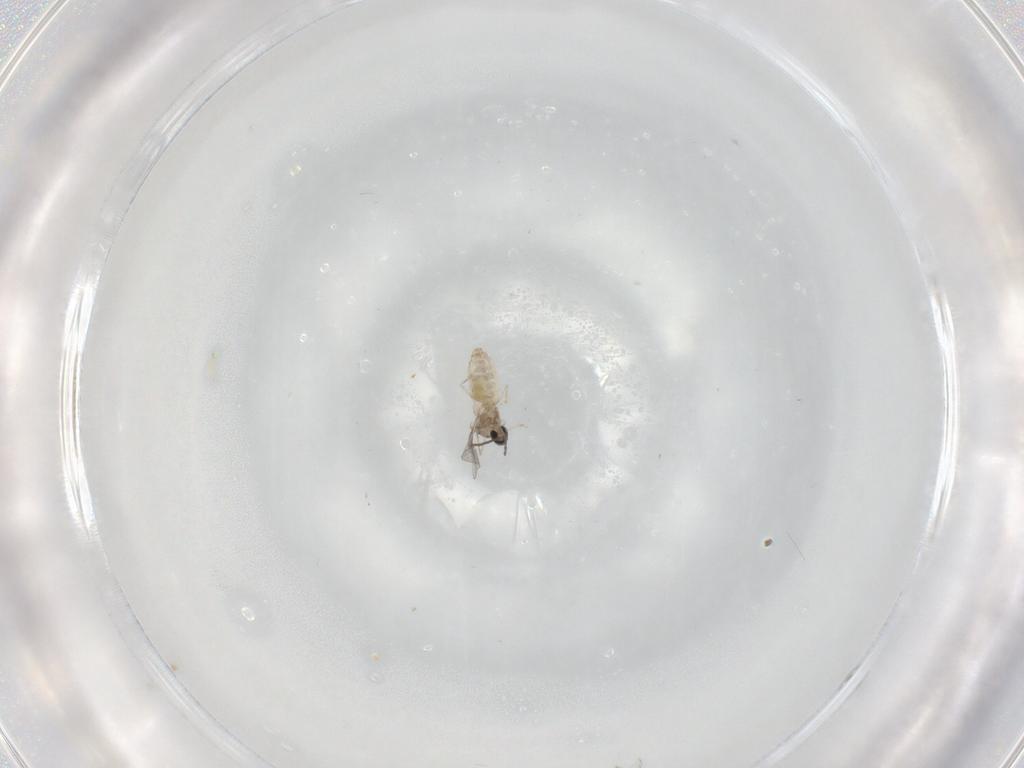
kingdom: Animalia
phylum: Arthropoda
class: Insecta
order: Diptera
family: Cecidomyiidae
